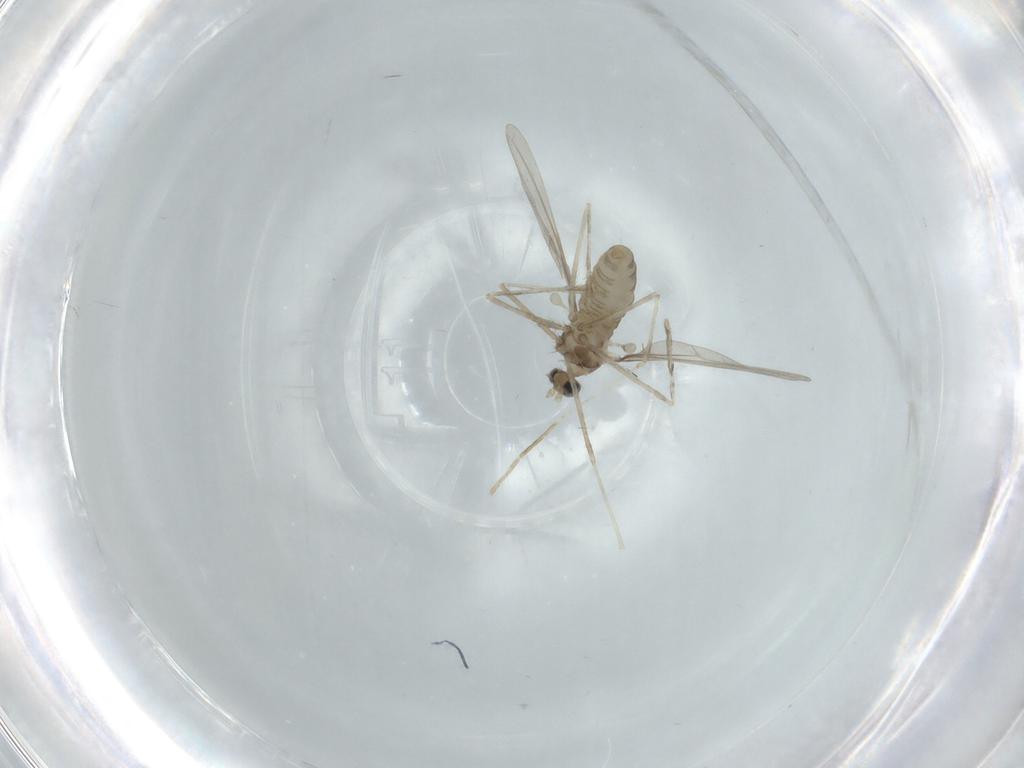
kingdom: Animalia
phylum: Arthropoda
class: Insecta
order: Diptera
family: Cecidomyiidae
